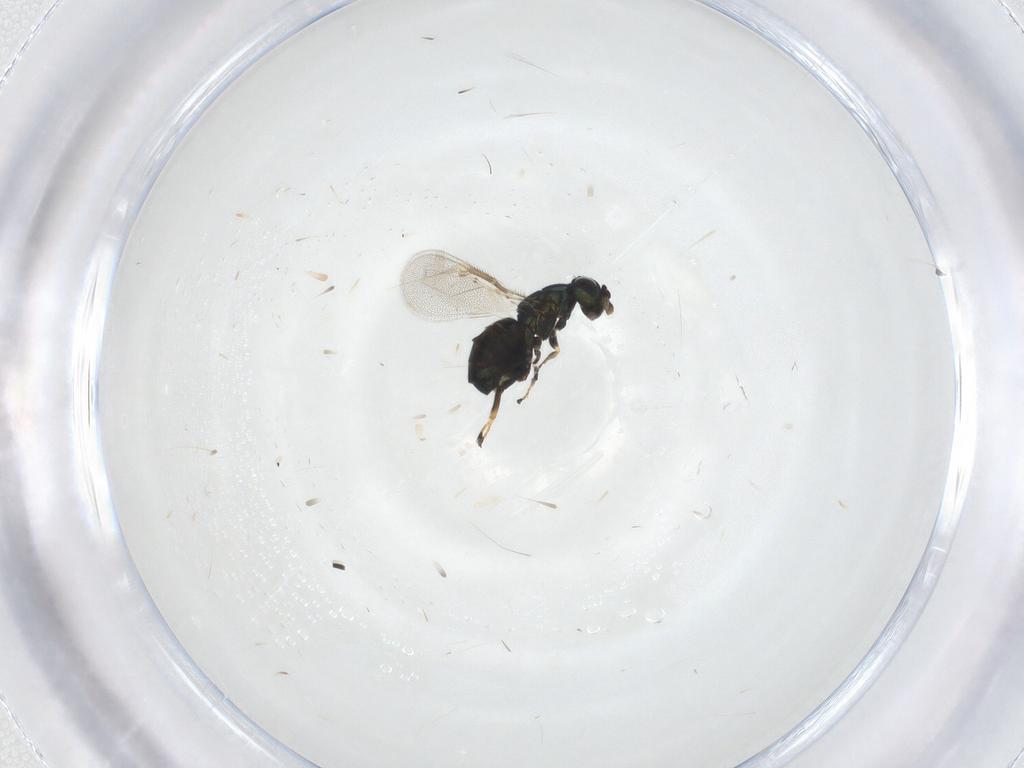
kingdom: Animalia
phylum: Arthropoda
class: Insecta
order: Hymenoptera
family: Eulophidae
